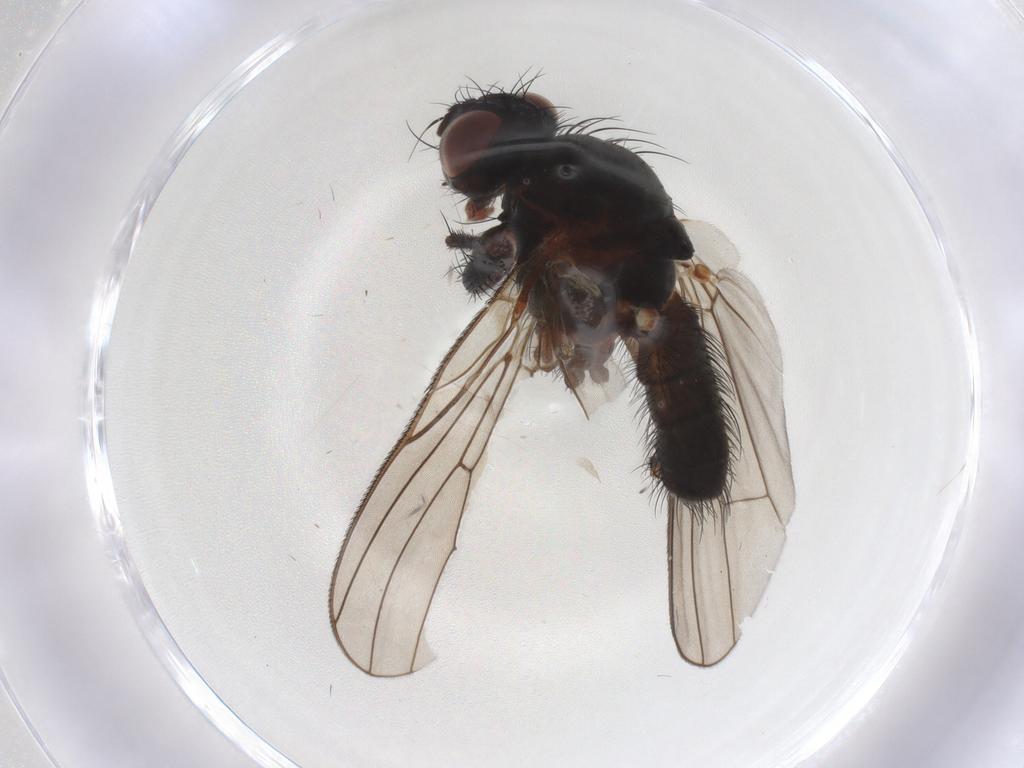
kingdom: Animalia
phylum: Arthropoda
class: Insecta
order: Diptera
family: Anthomyiidae
